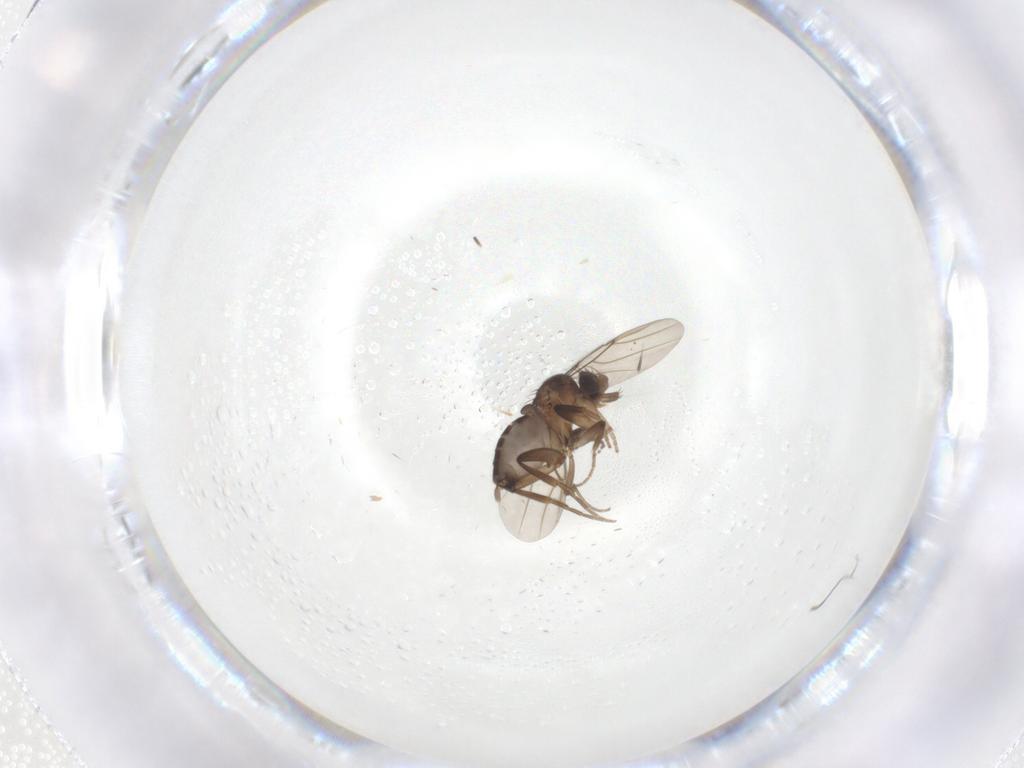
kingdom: Animalia
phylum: Arthropoda
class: Insecta
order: Diptera
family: Phoridae
